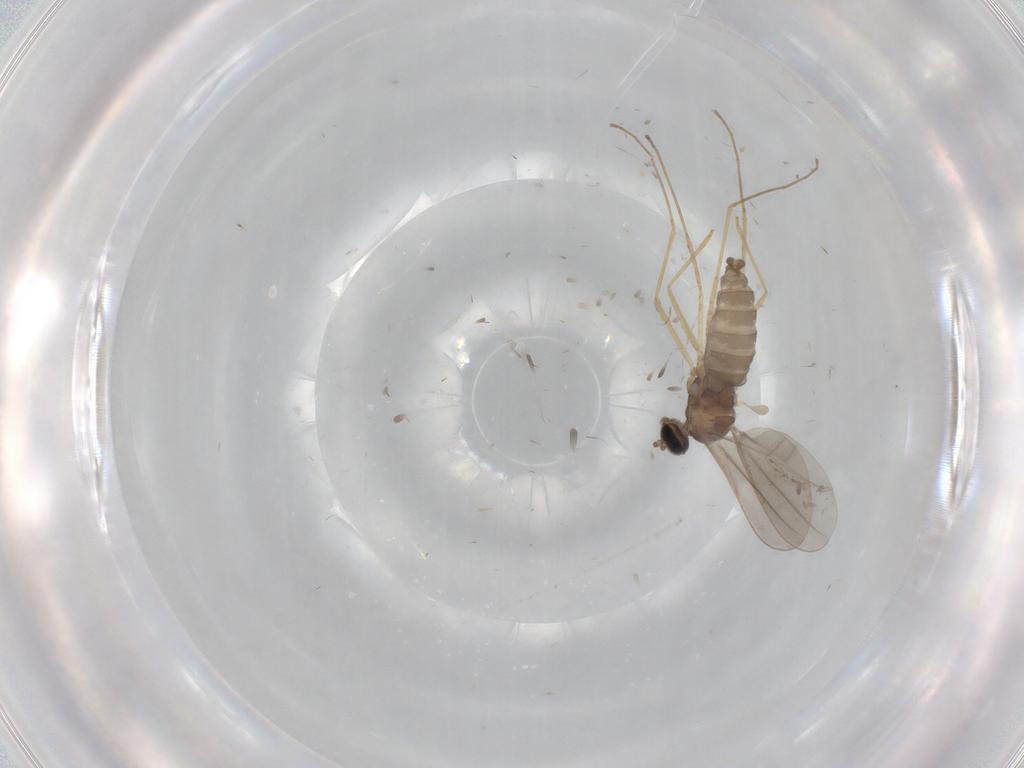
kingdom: Animalia
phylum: Arthropoda
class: Insecta
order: Diptera
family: Chironomidae
